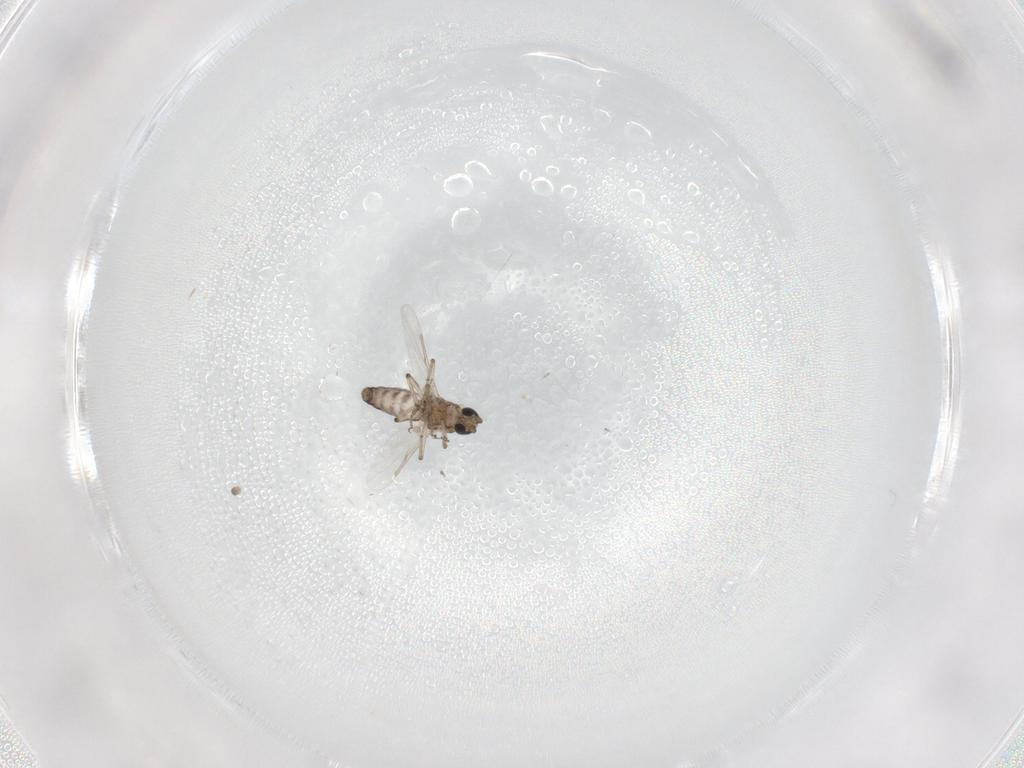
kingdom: Animalia
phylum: Arthropoda
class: Insecta
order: Diptera
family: Ceratopogonidae
